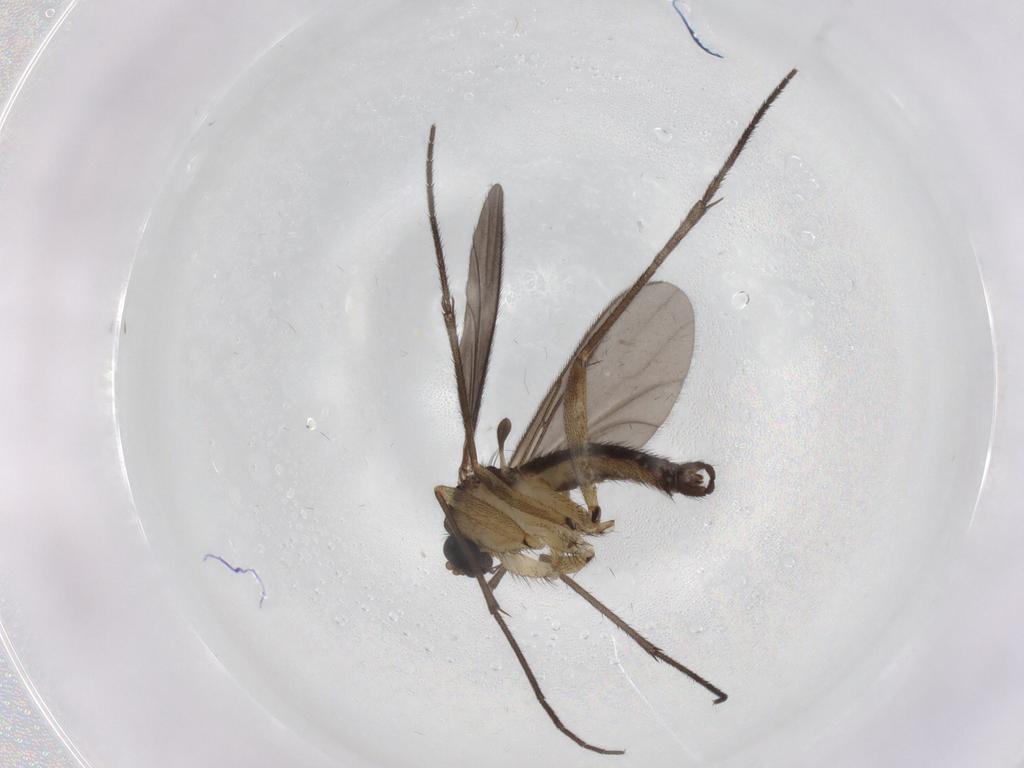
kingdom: Animalia
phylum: Arthropoda
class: Insecta
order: Diptera
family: Sciaridae
